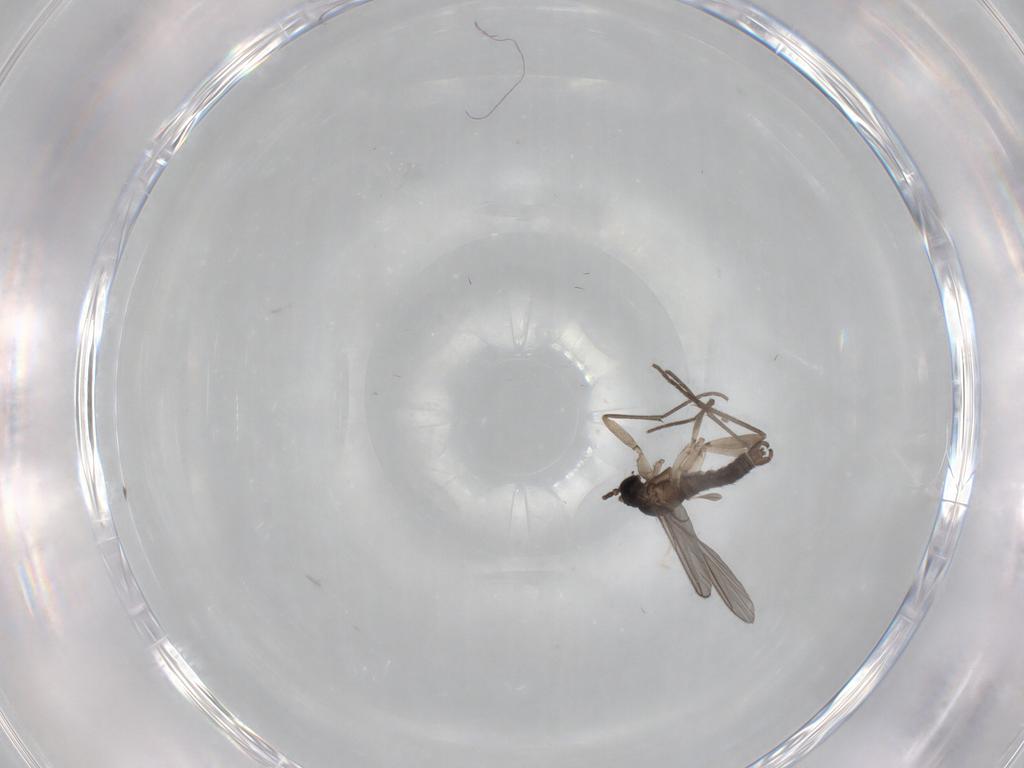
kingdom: Animalia
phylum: Arthropoda
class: Insecta
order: Diptera
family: Sciaridae
